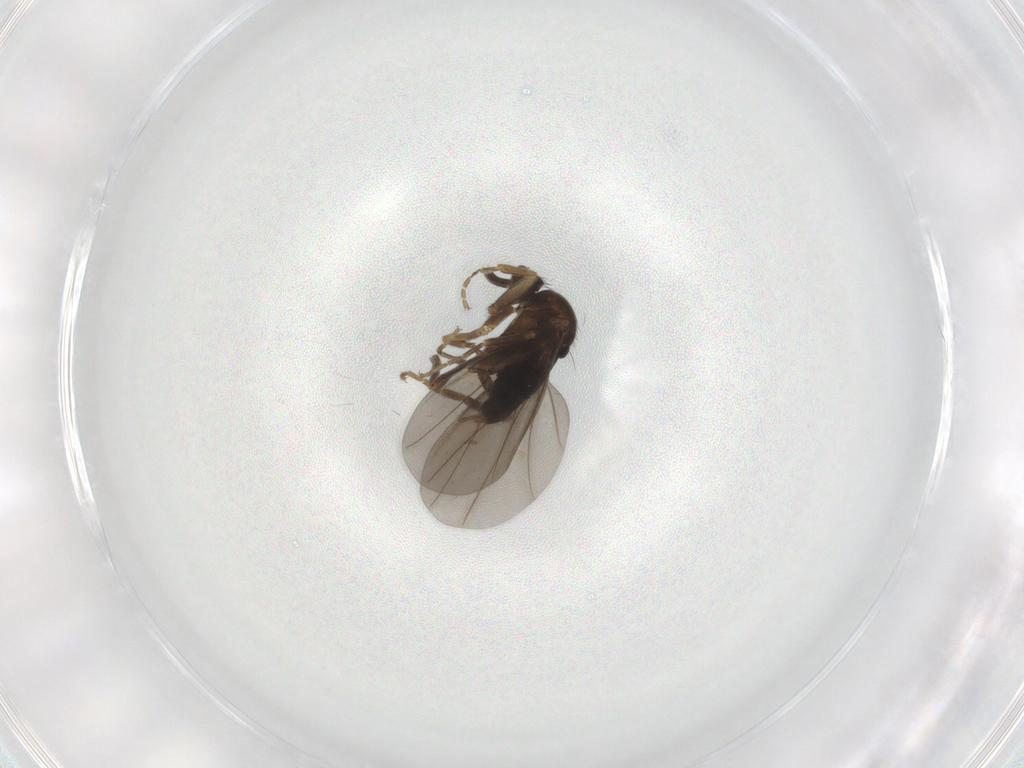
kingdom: Animalia
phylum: Arthropoda
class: Insecta
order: Diptera
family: Phoridae
